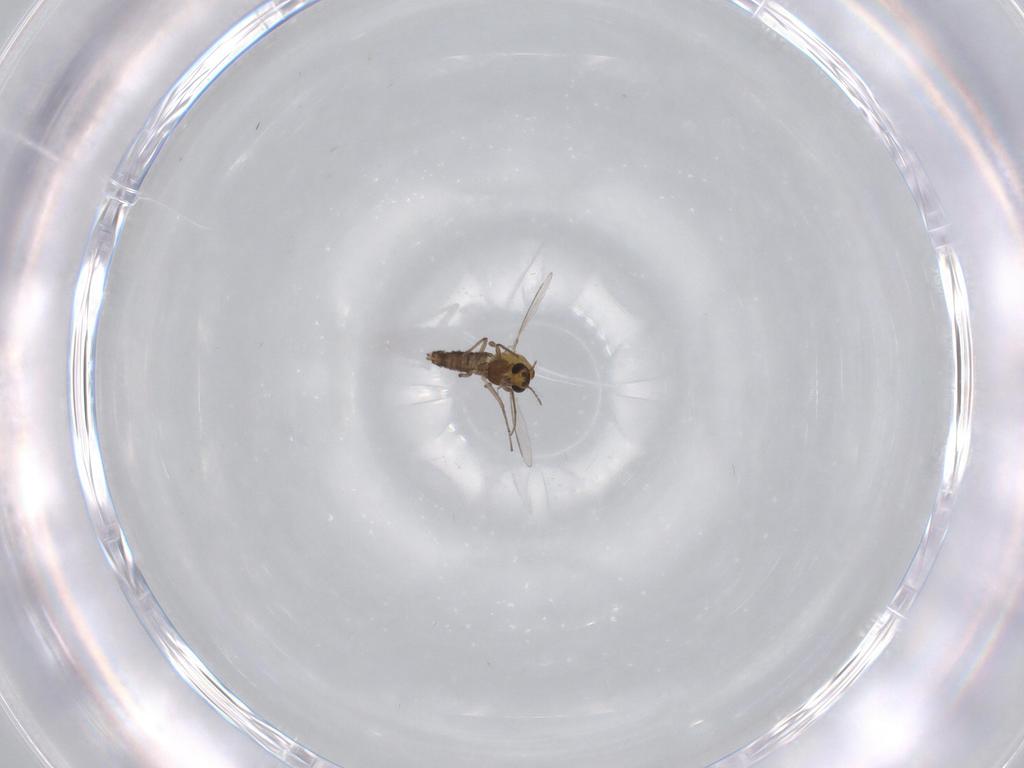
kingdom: Animalia
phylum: Arthropoda
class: Insecta
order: Diptera
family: Chironomidae
